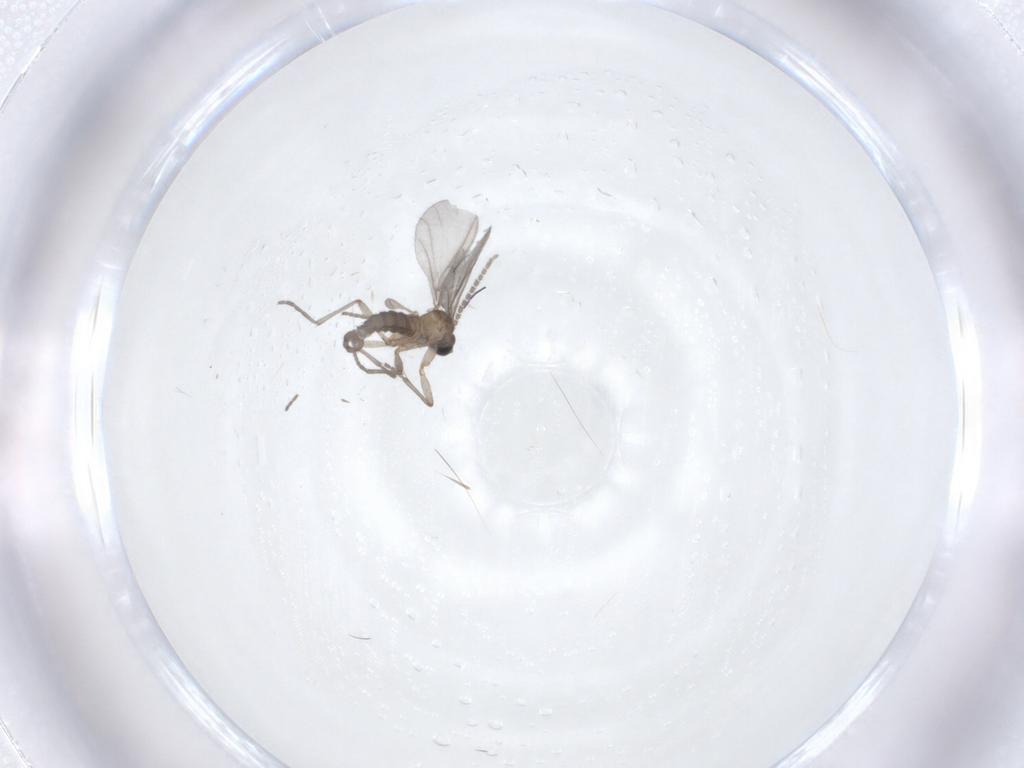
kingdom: Animalia
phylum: Arthropoda
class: Insecta
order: Diptera
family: Sciaridae
